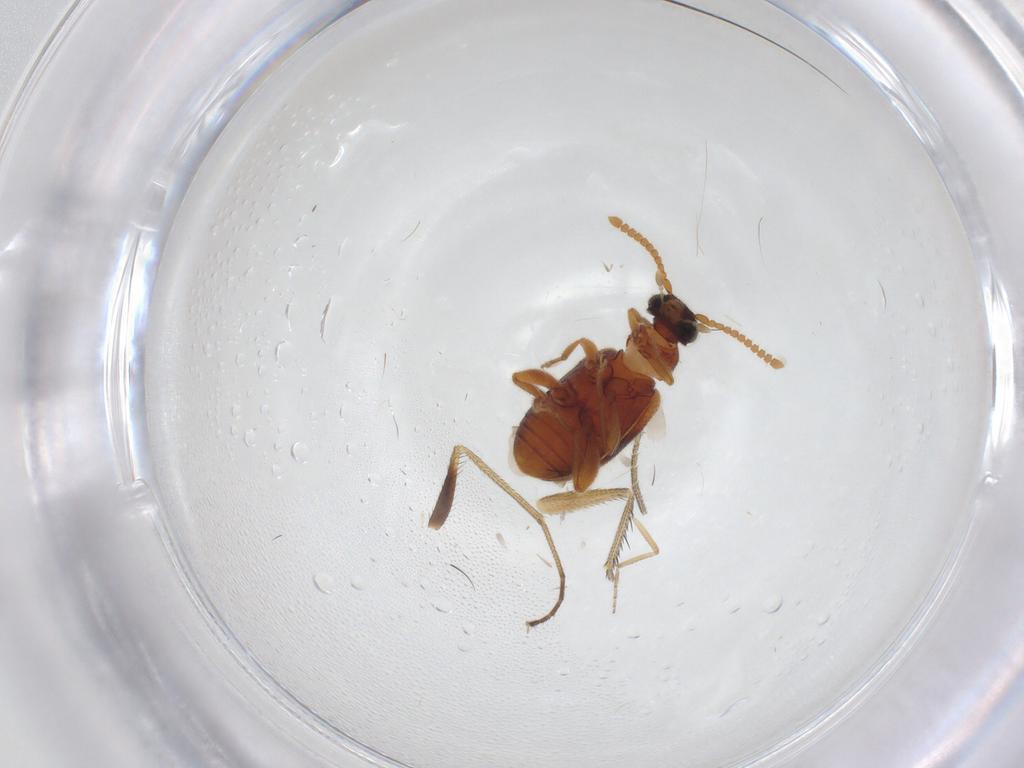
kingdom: Animalia
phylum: Arthropoda
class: Insecta
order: Coleoptera
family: Aderidae
